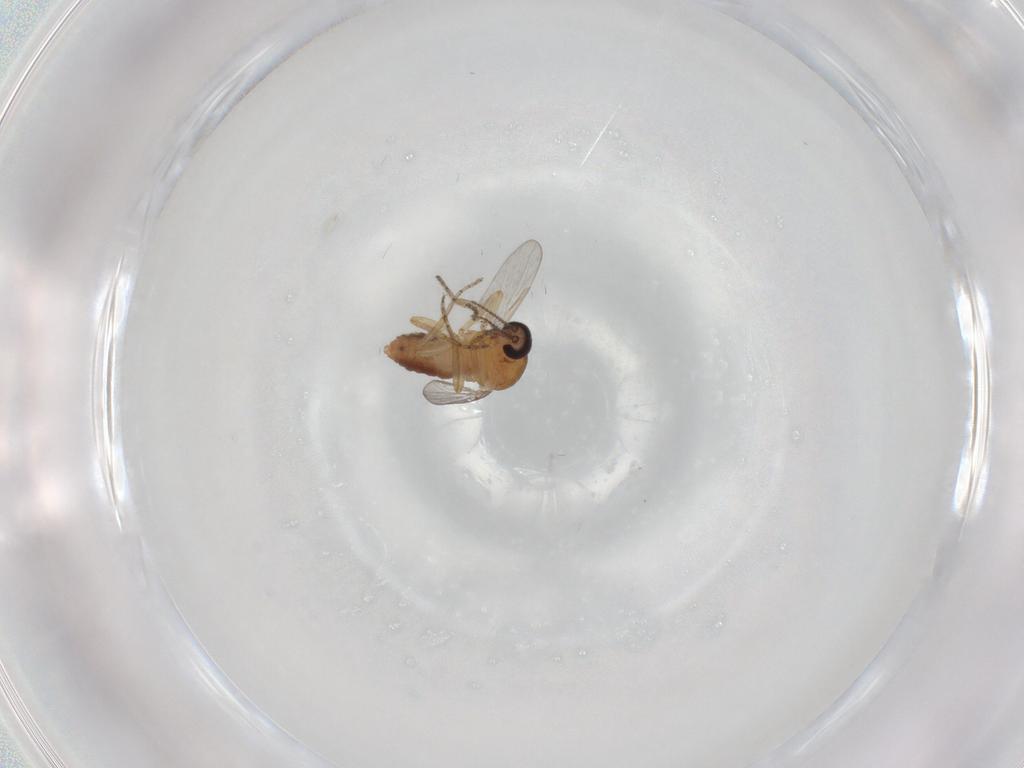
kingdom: Animalia
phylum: Arthropoda
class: Insecta
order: Diptera
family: Ceratopogonidae
